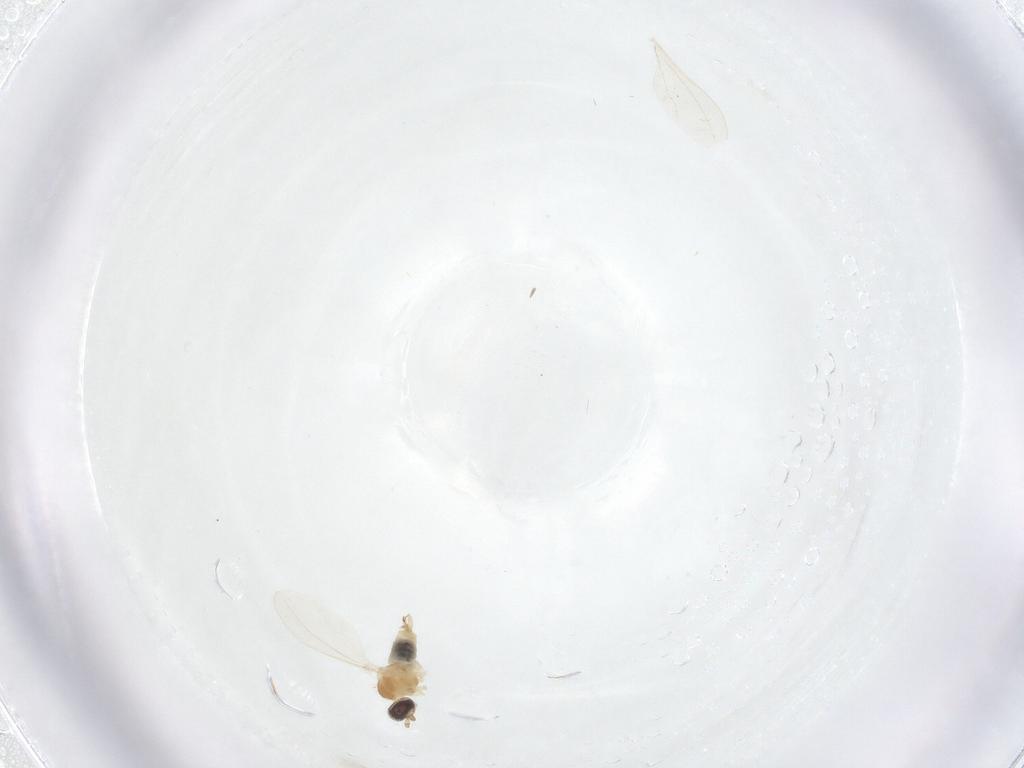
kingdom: Animalia
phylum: Arthropoda
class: Insecta
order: Diptera
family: Cecidomyiidae
